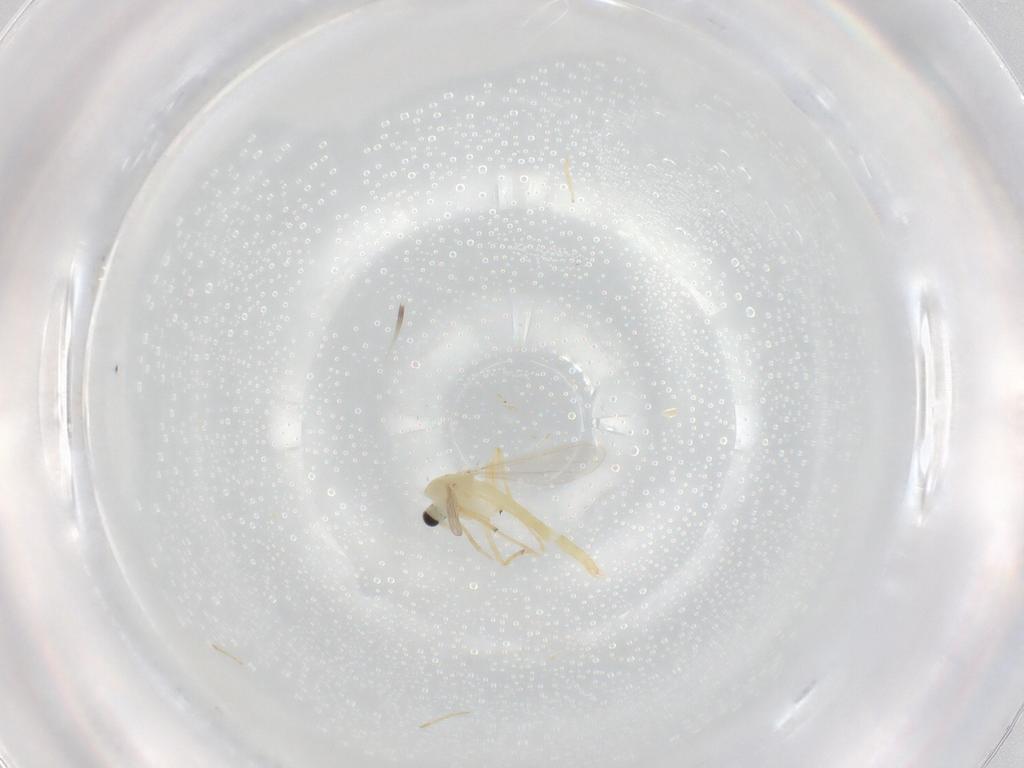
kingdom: Animalia
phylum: Arthropoda
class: Insecta
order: Diptera
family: Chironomidae
